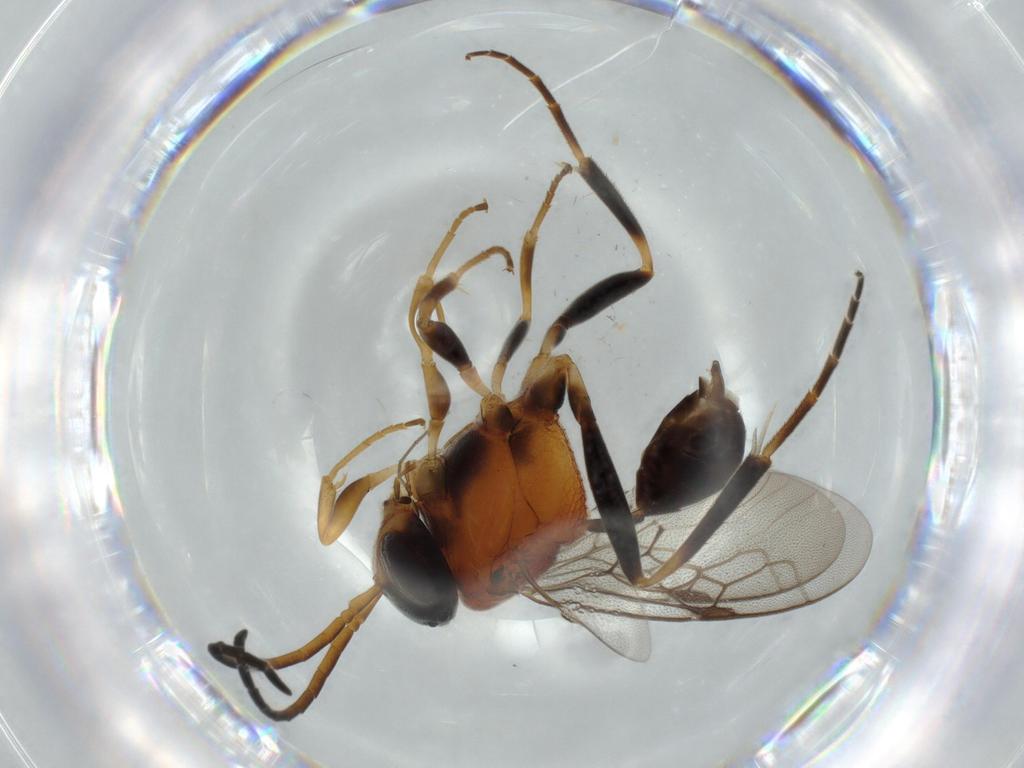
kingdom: Animalia
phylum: Arthropoda
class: Insecta
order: Hymenoptera
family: Evaniidae
